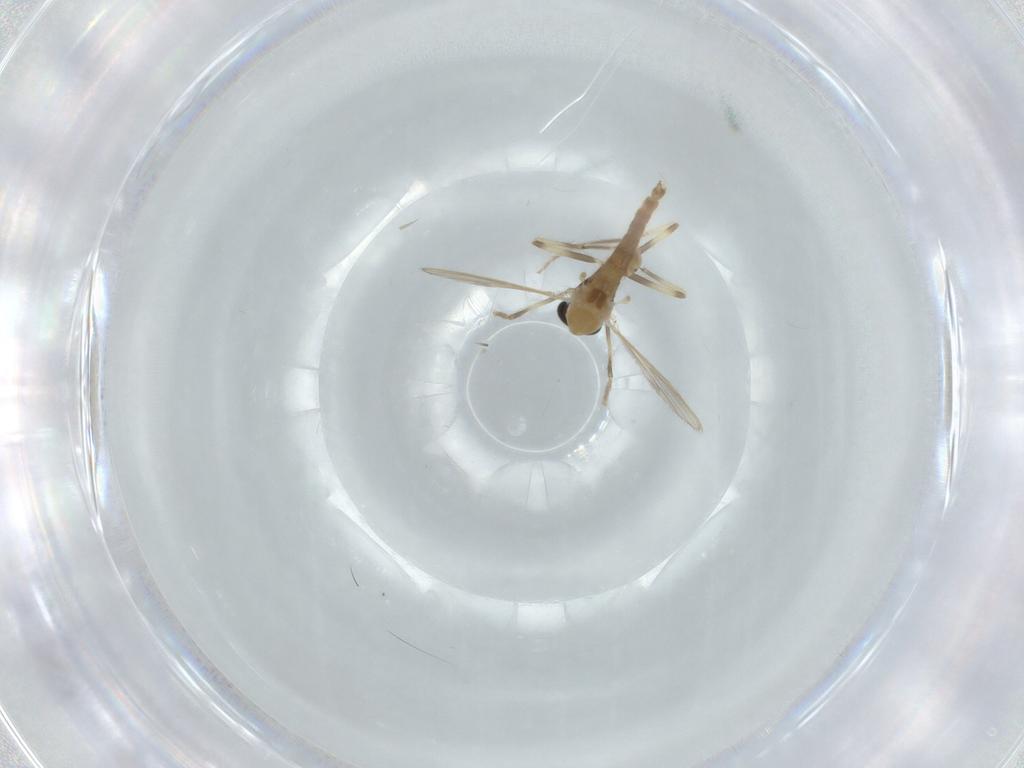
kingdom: Animalia
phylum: Arthropoda
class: Insecta
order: Diptera
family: Chironomidae
